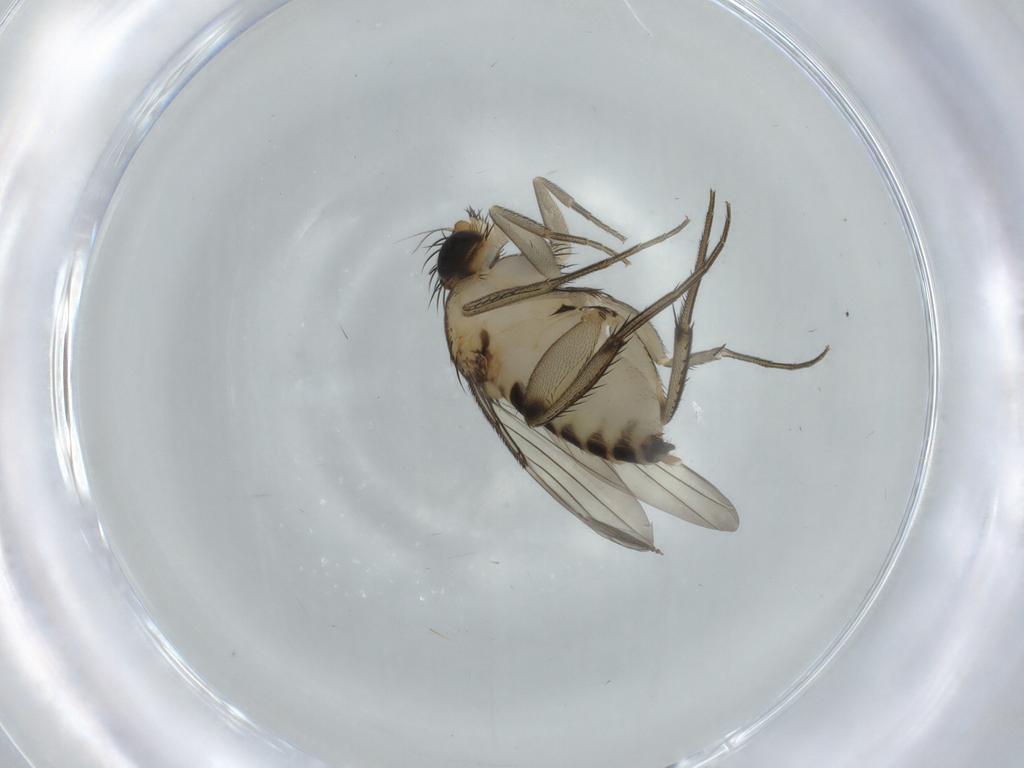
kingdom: Animalia
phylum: Arthropoda
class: Insecta
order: Diptera
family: Phoridae
